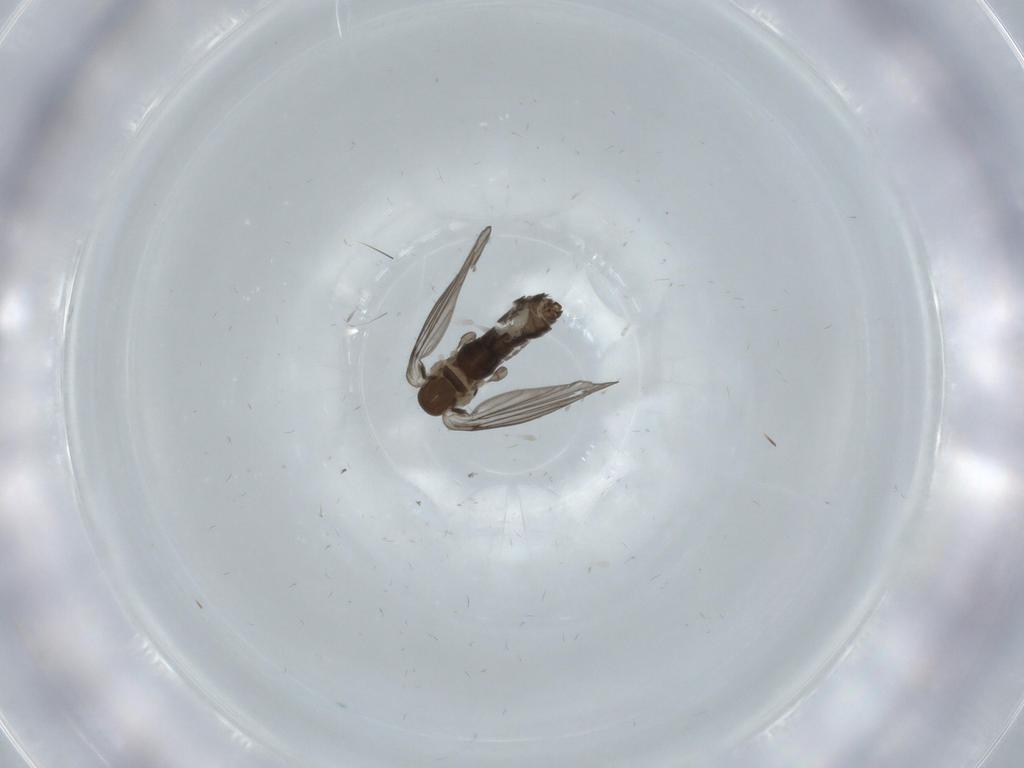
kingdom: Animalia
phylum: Arthropoda
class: Insecta
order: Diptera
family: Psychodidae
